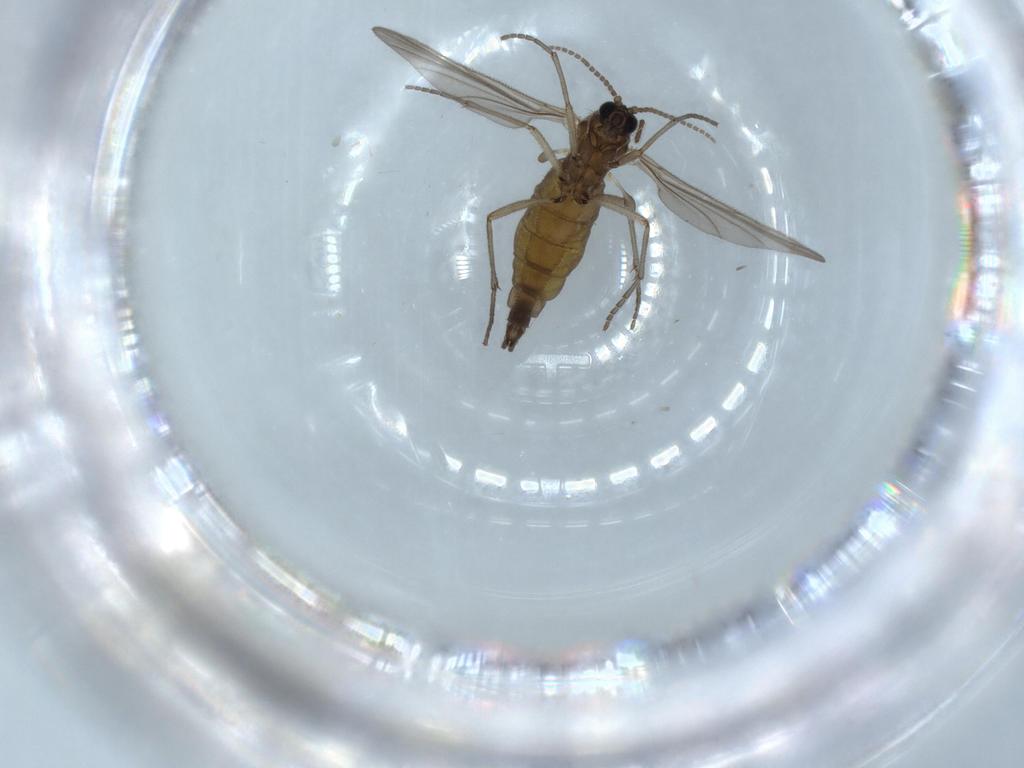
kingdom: Animalia
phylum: Arthropoda
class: Insecta
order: Diptera
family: Sciaridae
